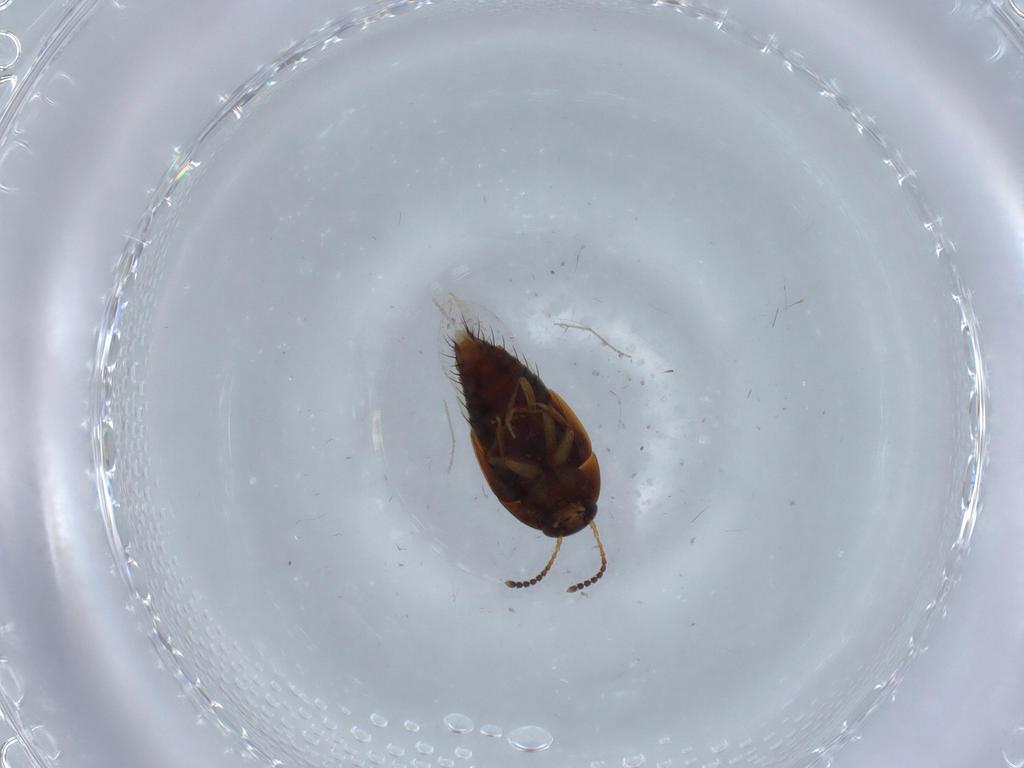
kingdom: Animalia
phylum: Arthropoda
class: Insecta
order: Coleoptera
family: Staphylinidae
